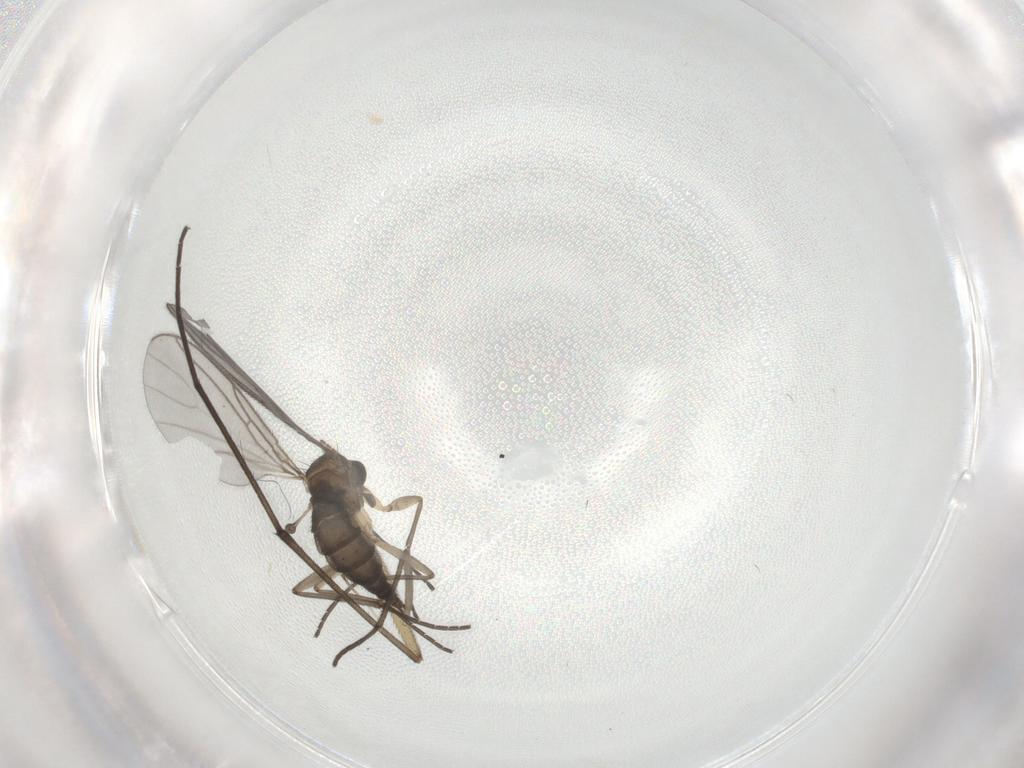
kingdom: Animalia
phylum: Arthropoda
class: Insecta
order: Diptera
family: Sciaridae
